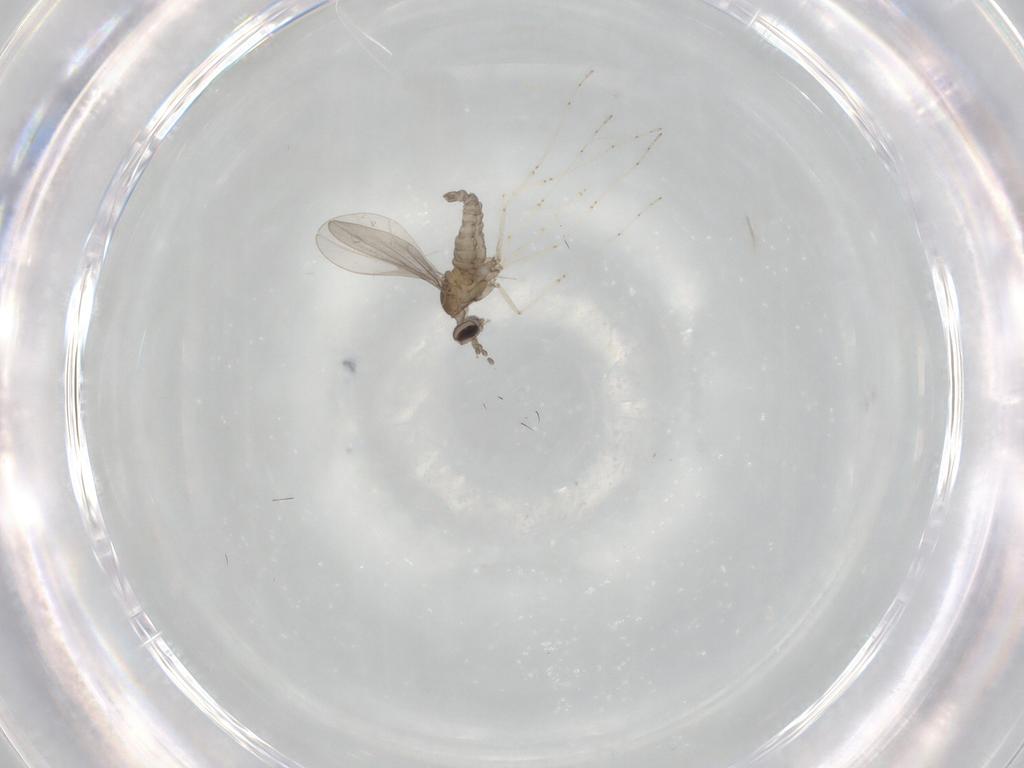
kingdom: Animalia
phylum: Arthropoda
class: Insecta
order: Diptera
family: Cecidomyiidae
